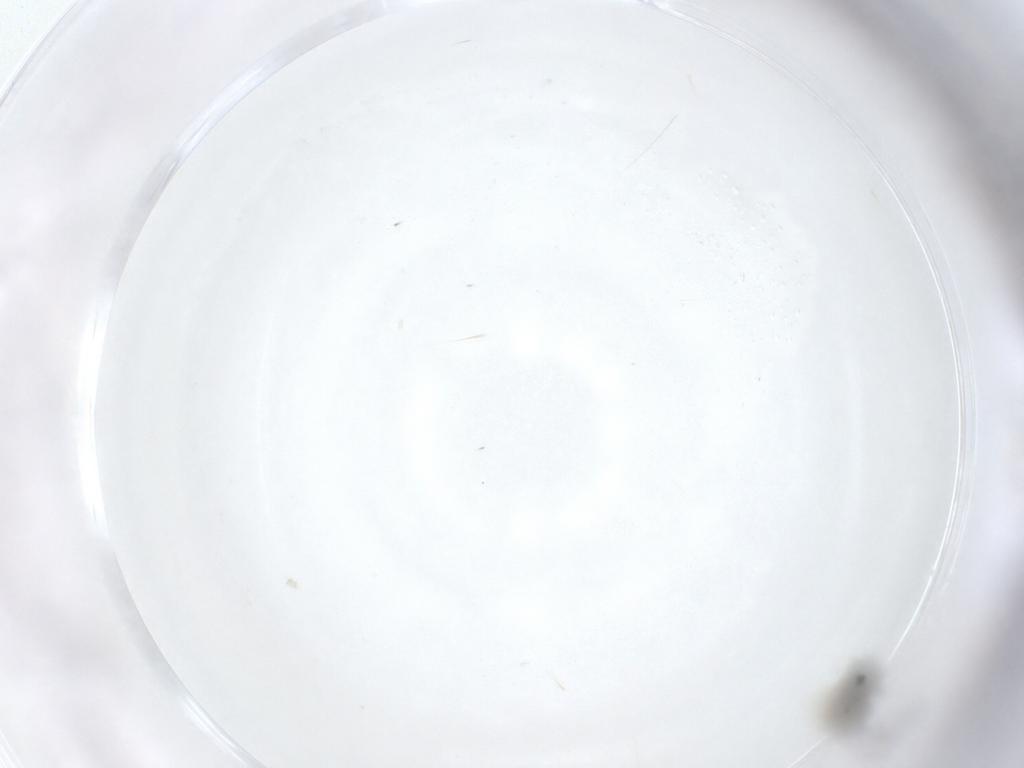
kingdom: Animalia
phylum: Arthropoda
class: Insecta
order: Hymenoptera
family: Mymaridae
